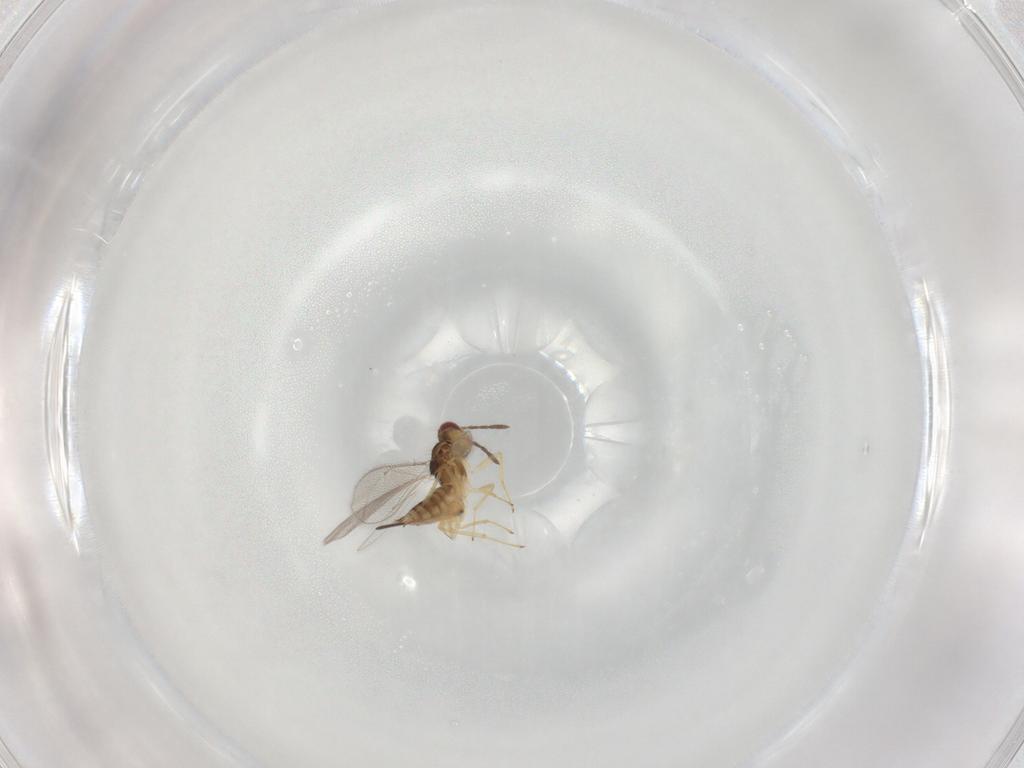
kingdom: Animalia
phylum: Arthropoda
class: Insecta
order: Hymenoptera
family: Eulophidae
